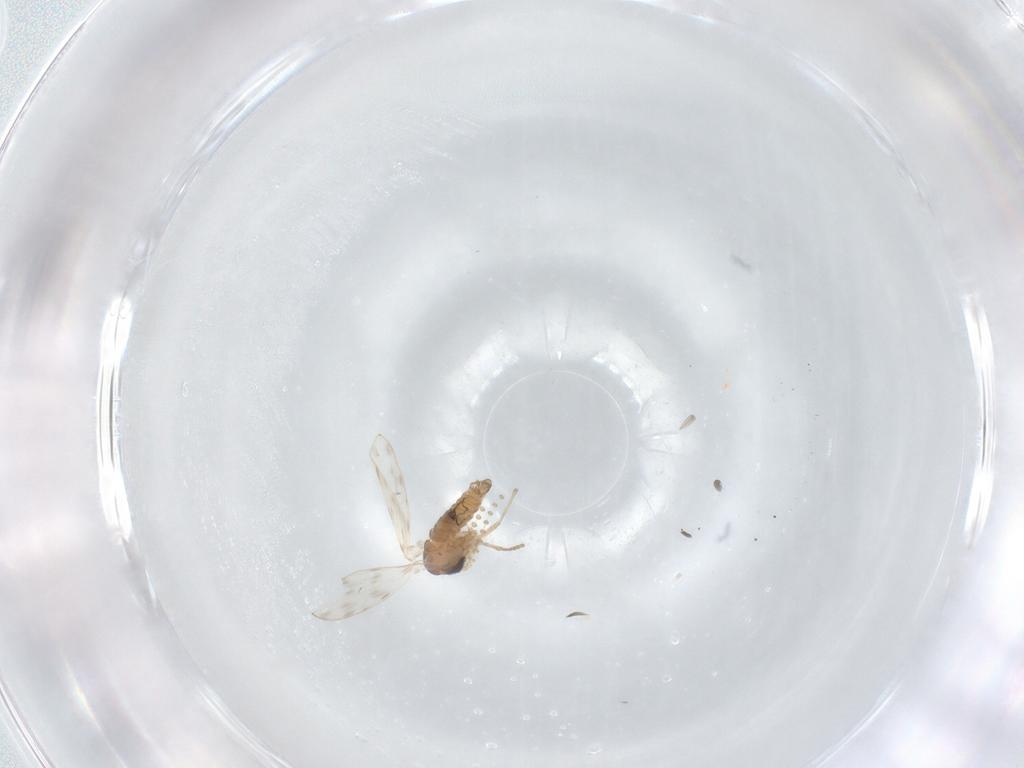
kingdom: Animalia
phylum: Arthropoda
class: Insecta
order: Diptera
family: Psychodidae
